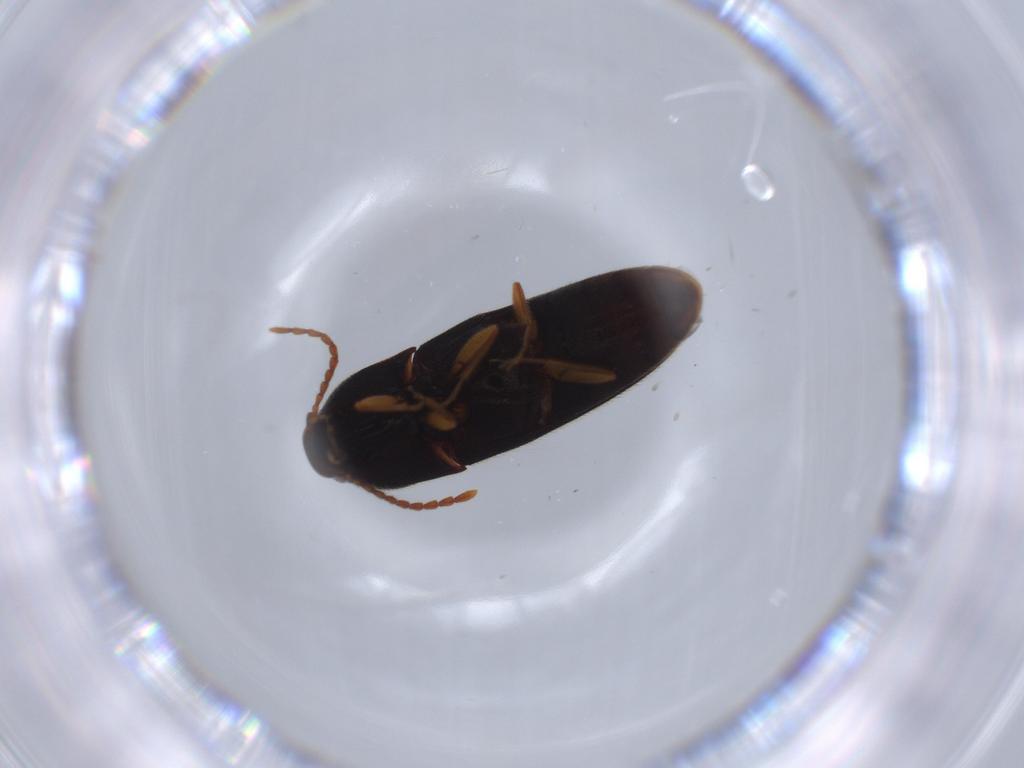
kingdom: Animalia
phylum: Arthropoda
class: Insecta
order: Coleoptera
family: Elateridae
